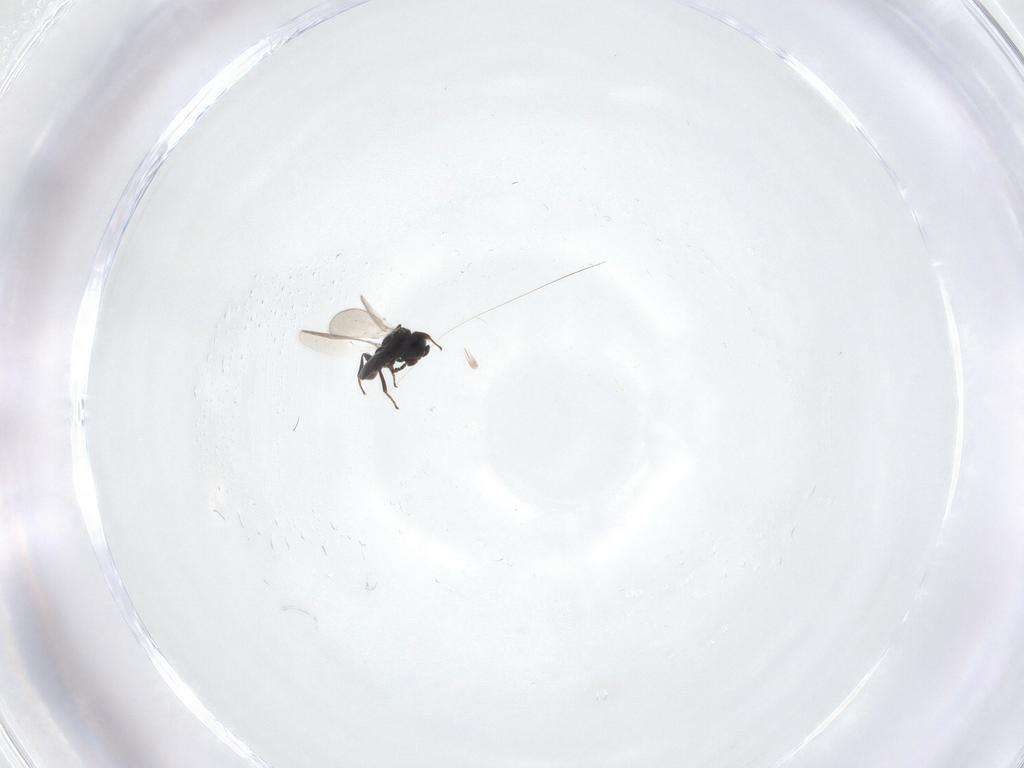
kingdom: Animalia
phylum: Arthropoda
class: Insecta
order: Hymenoptera
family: Platygastridae
